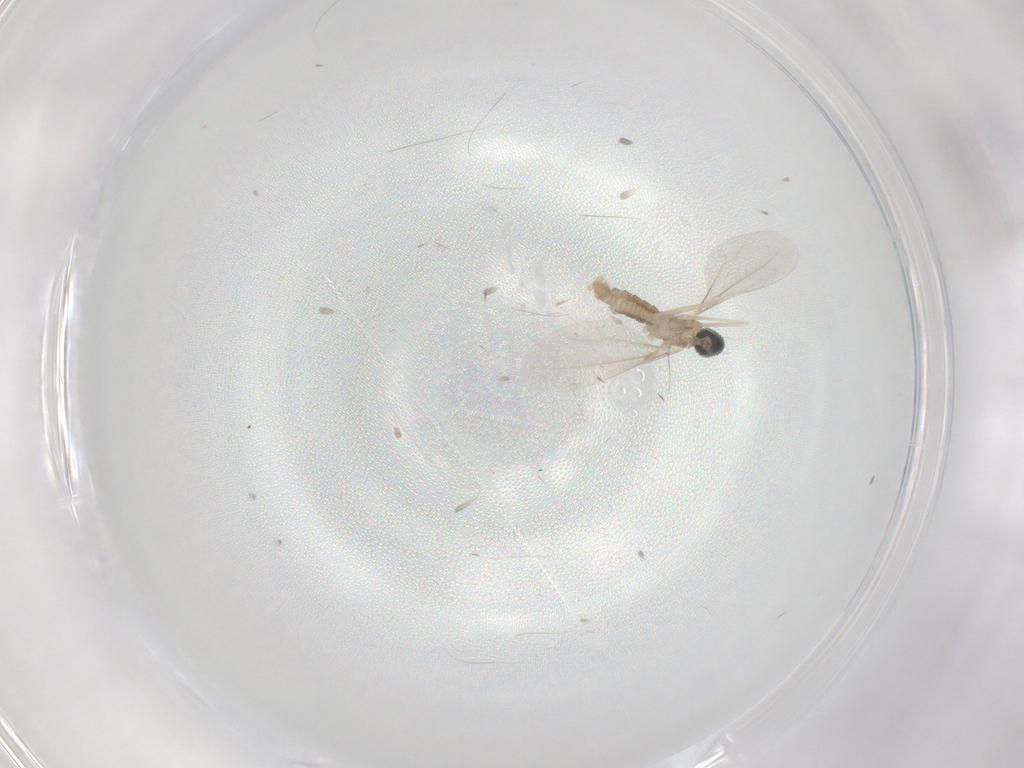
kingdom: Animalia
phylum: Arthropoda
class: Insecta
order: Diptera
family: Cecidomyiidae
